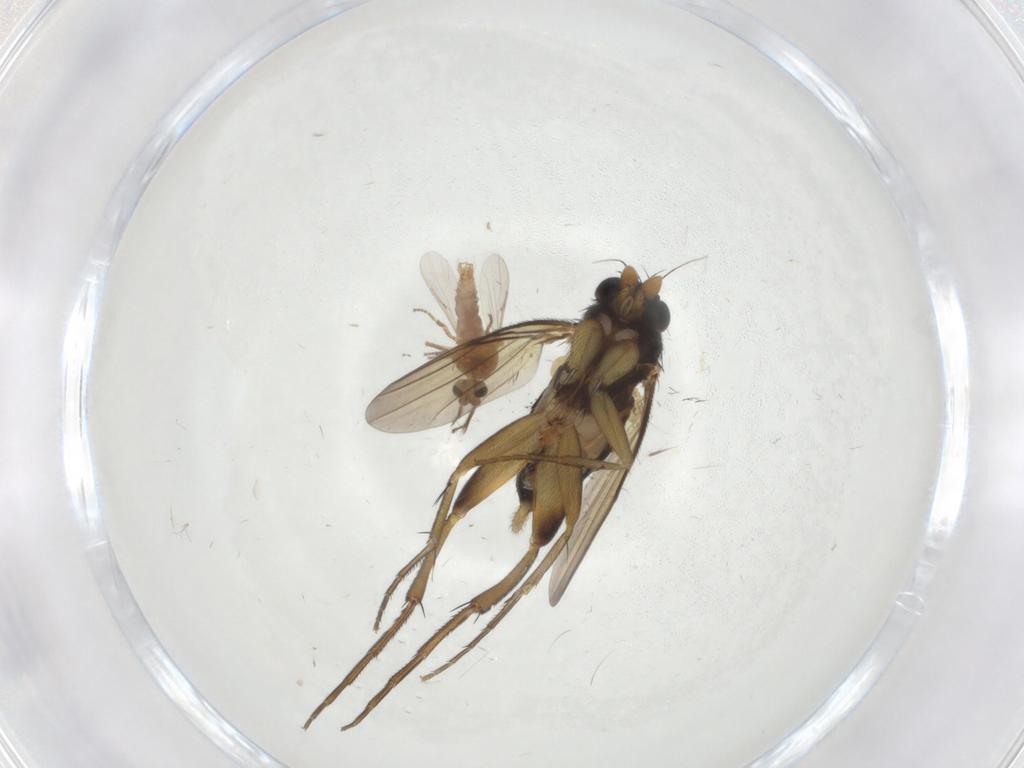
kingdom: Animalia
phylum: Arthropoda
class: Insecta
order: Diptera
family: Phoridae
